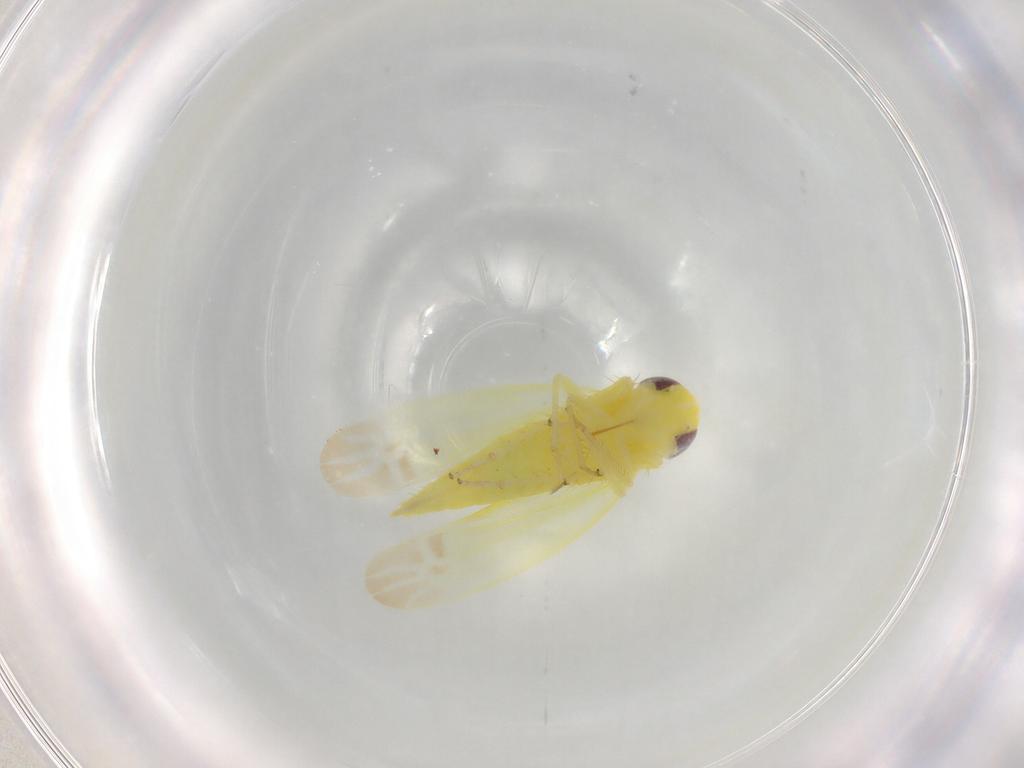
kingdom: Animalia
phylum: Arthropoda
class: Insecta
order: Hemiptera
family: Cicadellidae
